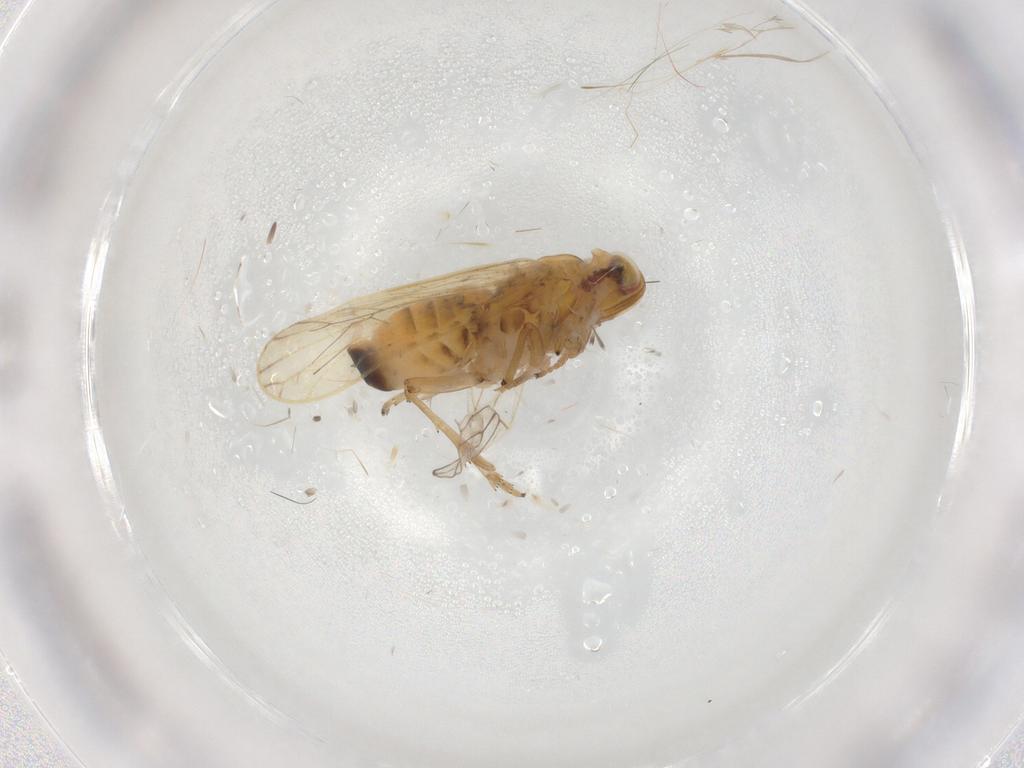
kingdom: Animalia
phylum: Arthropoda
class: Insecta
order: Hemiptera
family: Delphacidae
